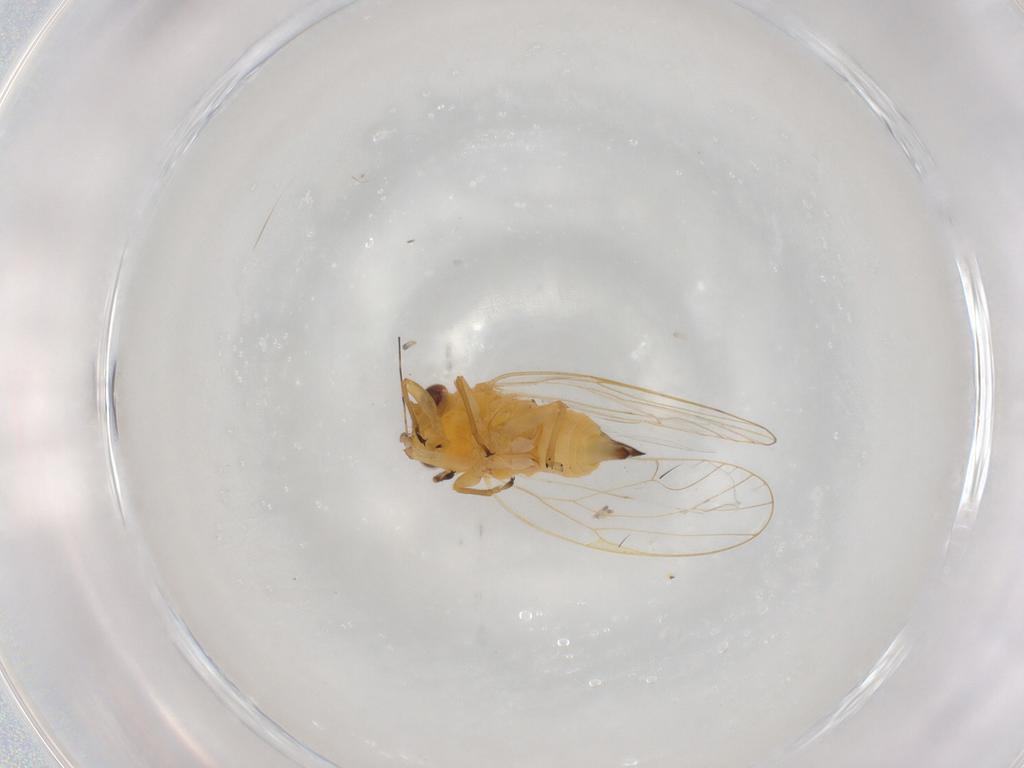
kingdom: Animalia
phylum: Arthropoda
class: Insecta
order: Hemiptera
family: Psyllidae
